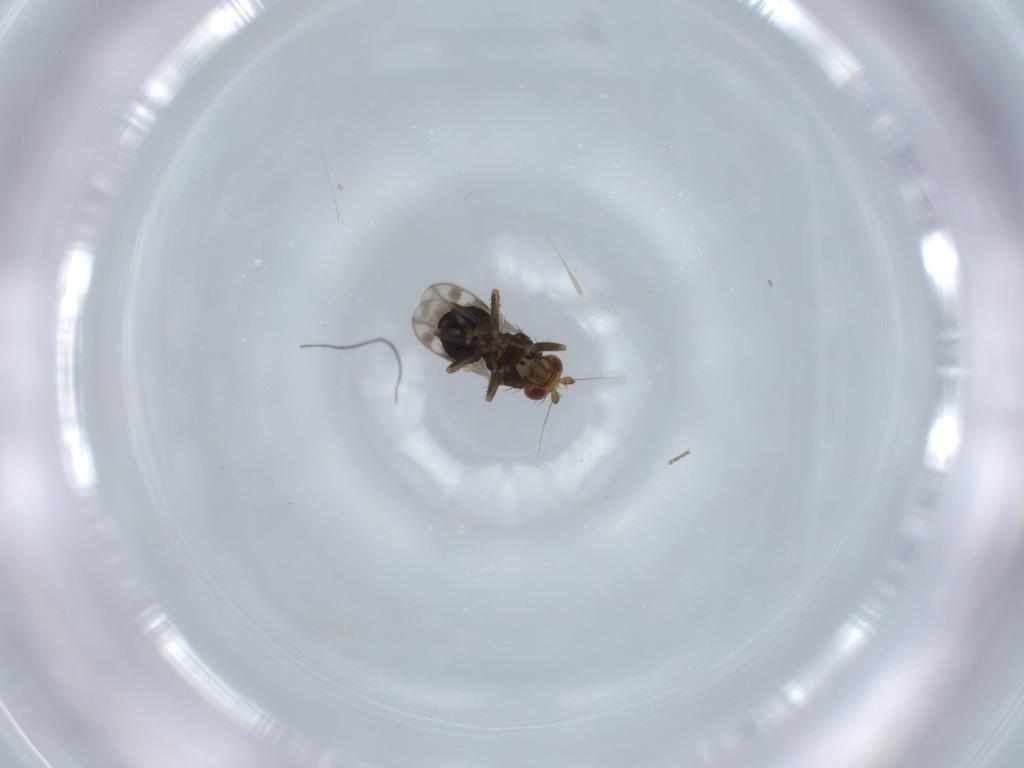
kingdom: Animalia
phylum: Arthropoda
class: Insecta
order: Diptera
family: Sphaeroceridae
